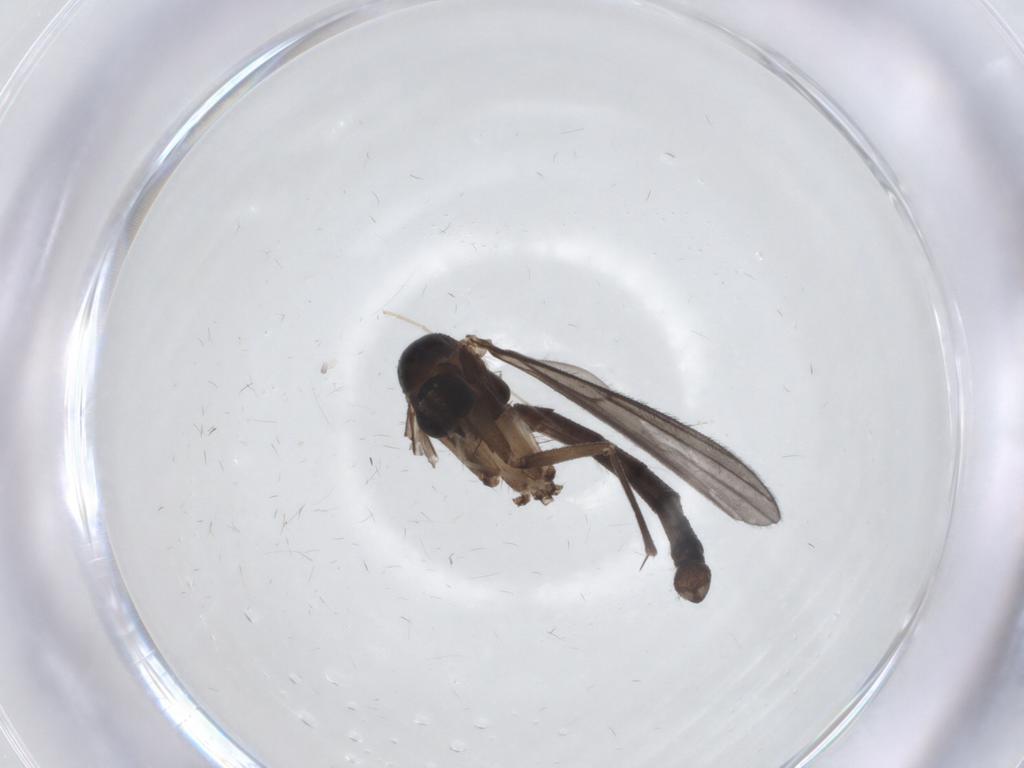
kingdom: Animalia
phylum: Arthropoda
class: Insecta
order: Diptera
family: Mycetophilidae
